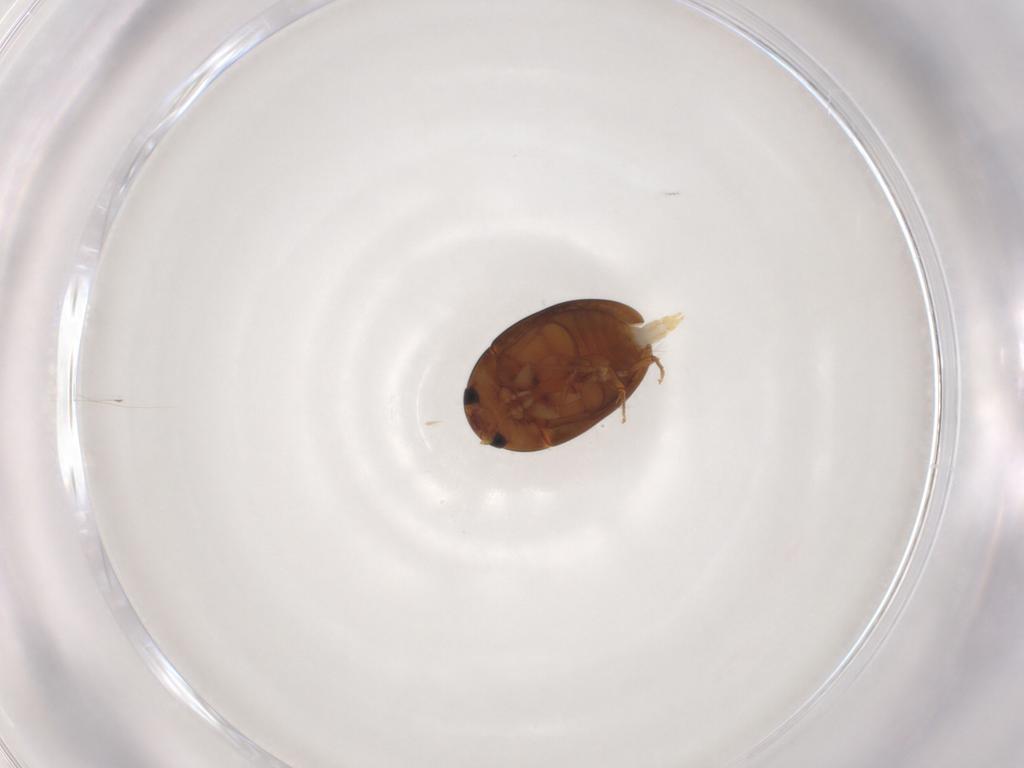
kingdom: Animalia
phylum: Arthropoda
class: Insecta
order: Coleoptera
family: Phalacridae
